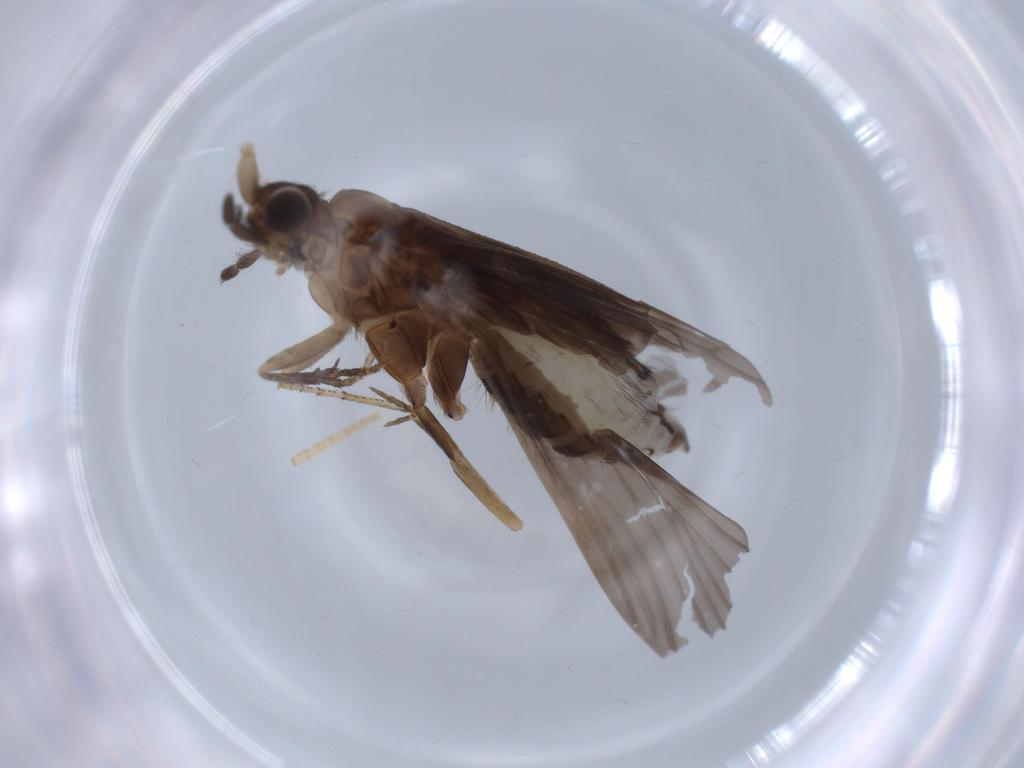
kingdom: Animalia
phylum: Arthropoda
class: Insecta
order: Trichoptera
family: Helicopsychidae
